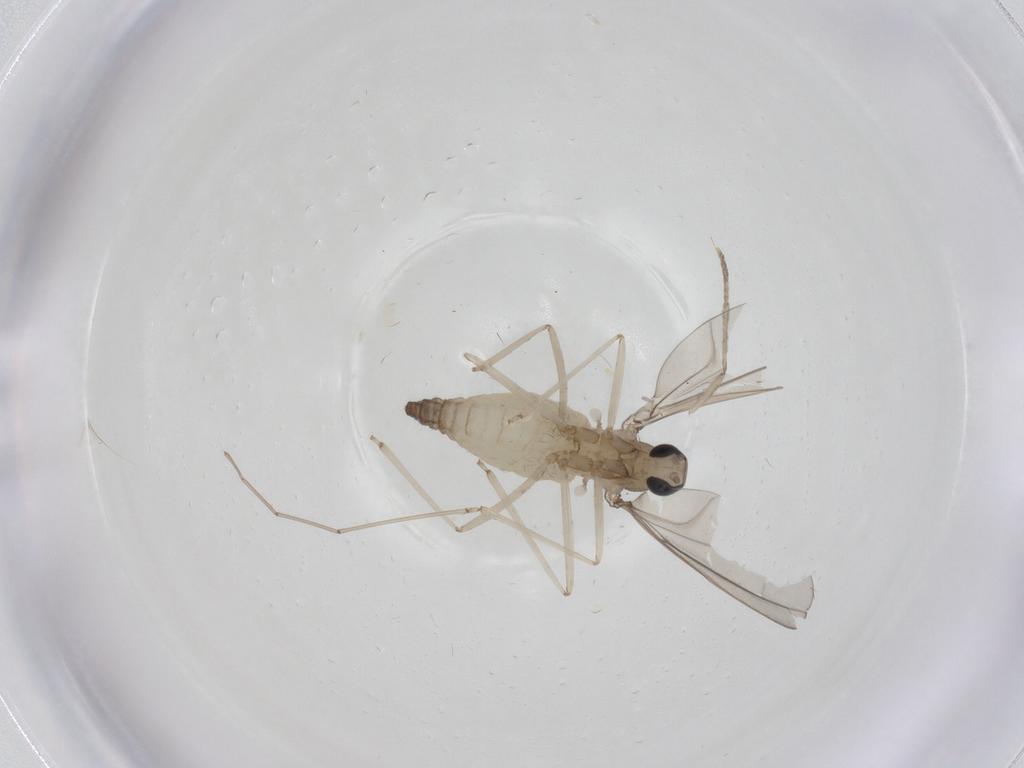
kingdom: Animalia
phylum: Arthropoda
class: Insecta
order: Diptera
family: Cecidomyiidae
